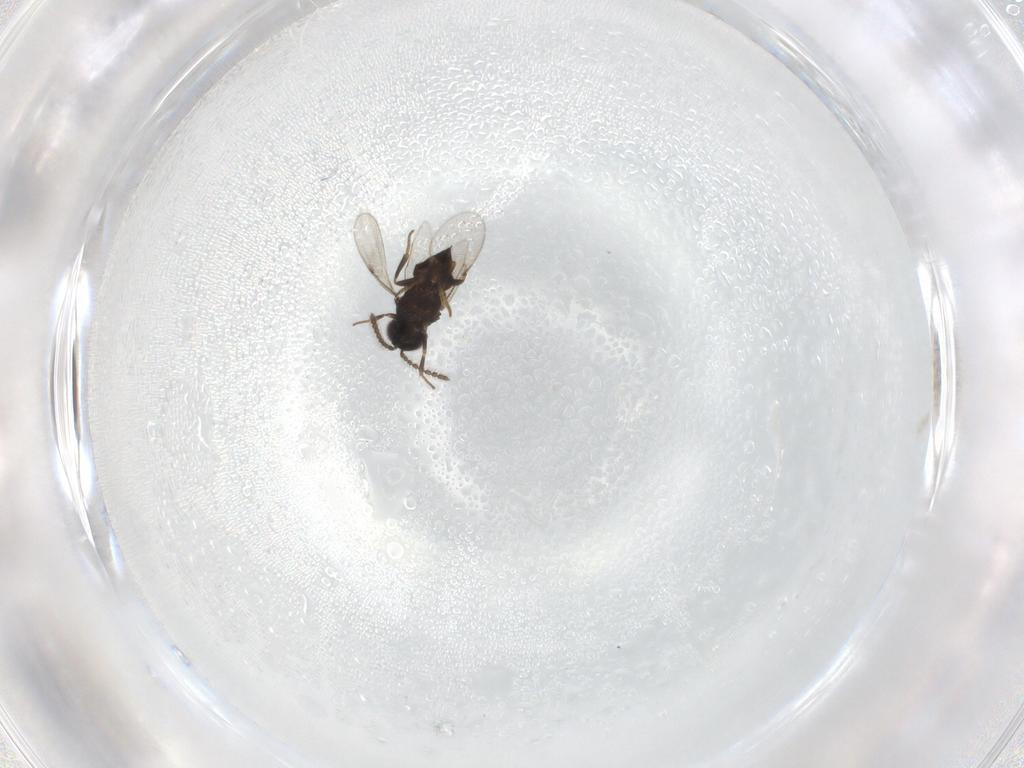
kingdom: Animalia
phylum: Arthropoda
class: Insecta
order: Hymenoptera
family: Encyrtidae
